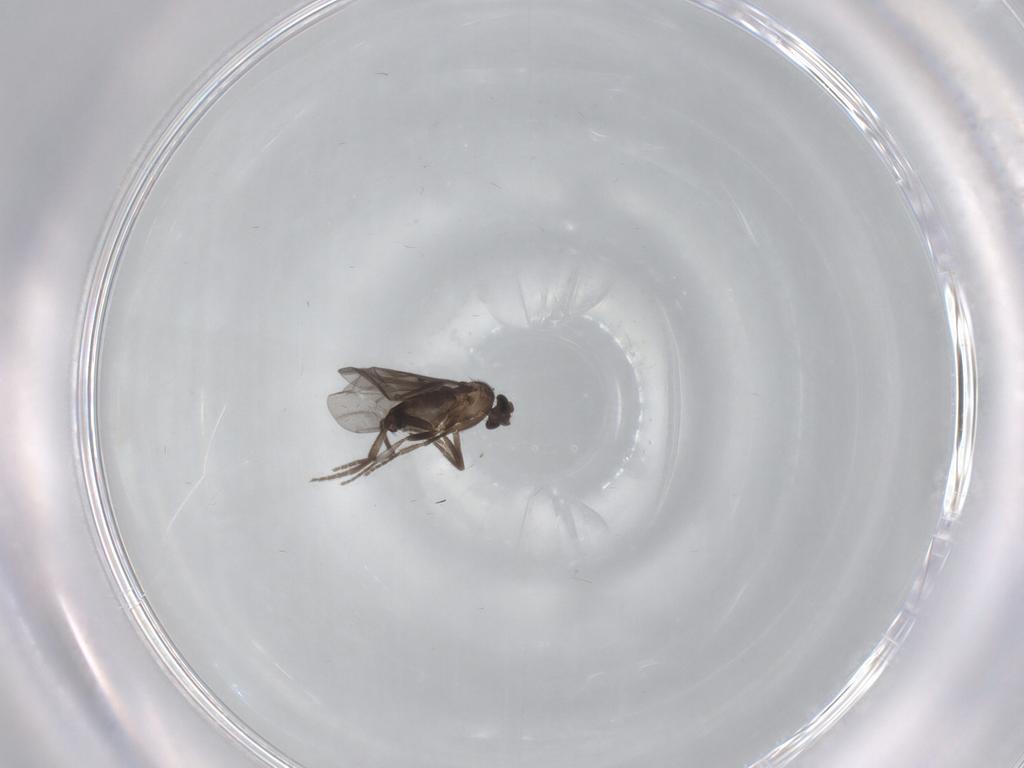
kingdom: Animalia
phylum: Arthropoda
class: Insecta
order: Diptera
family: Phoridae
